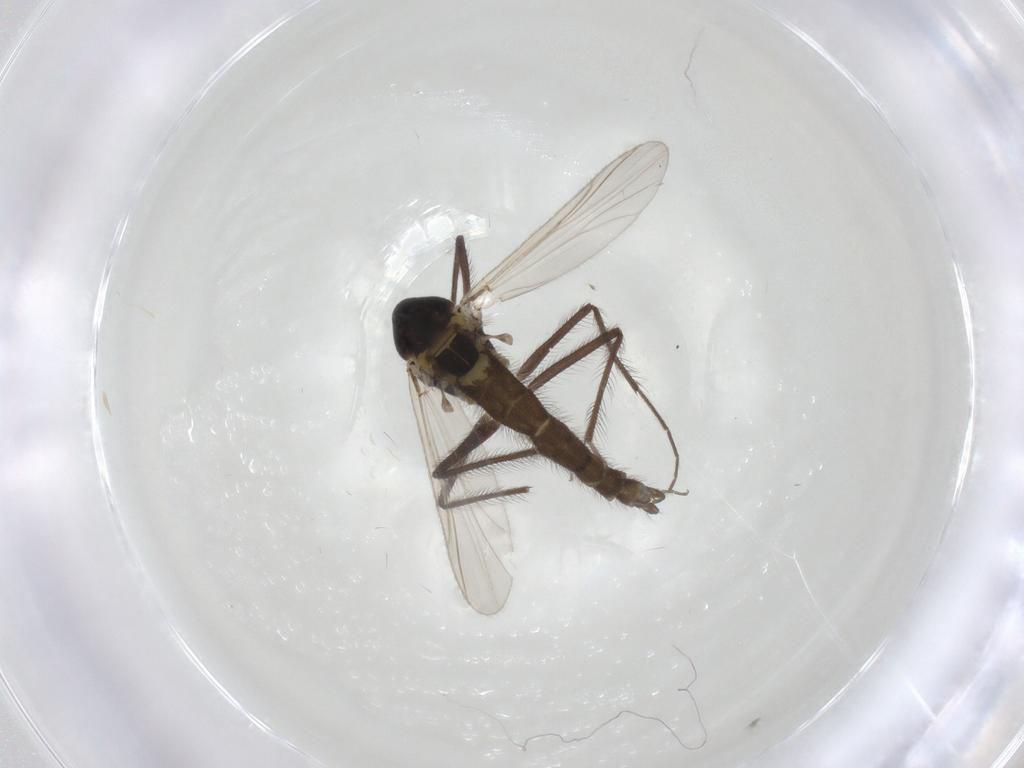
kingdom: Animalia
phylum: Arthropoda
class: Insecta
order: Diptera
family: Chironomidae
